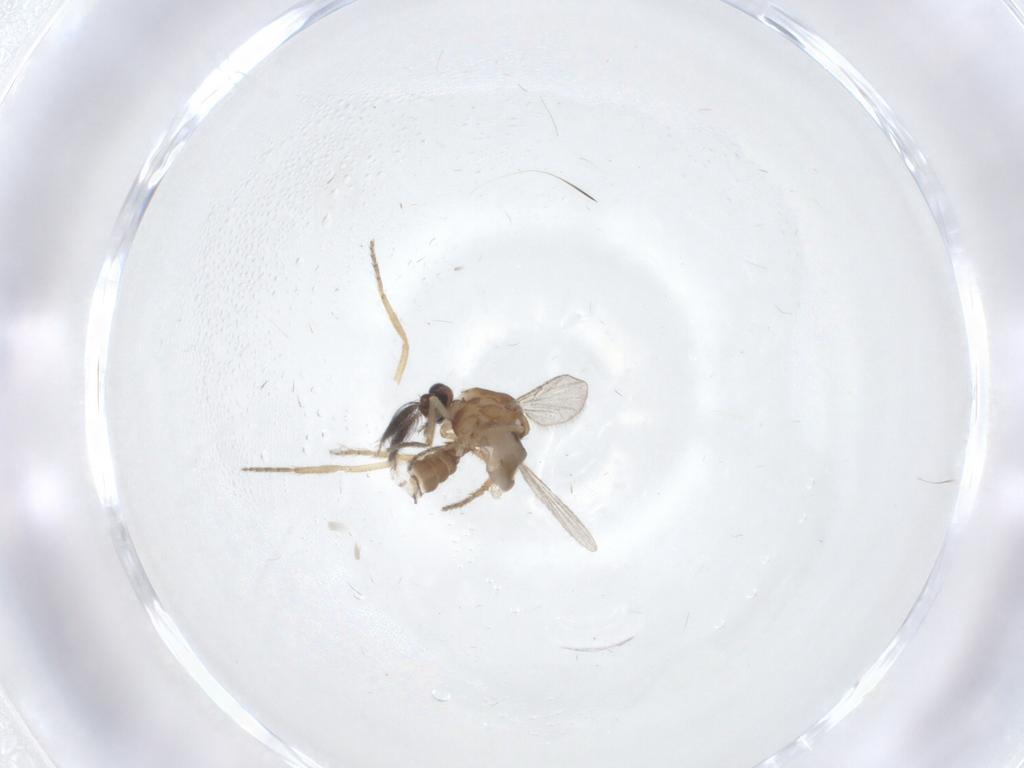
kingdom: Animalia
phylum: Arthropoda
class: Insecta
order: Diptera
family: Ceratopogonidae
